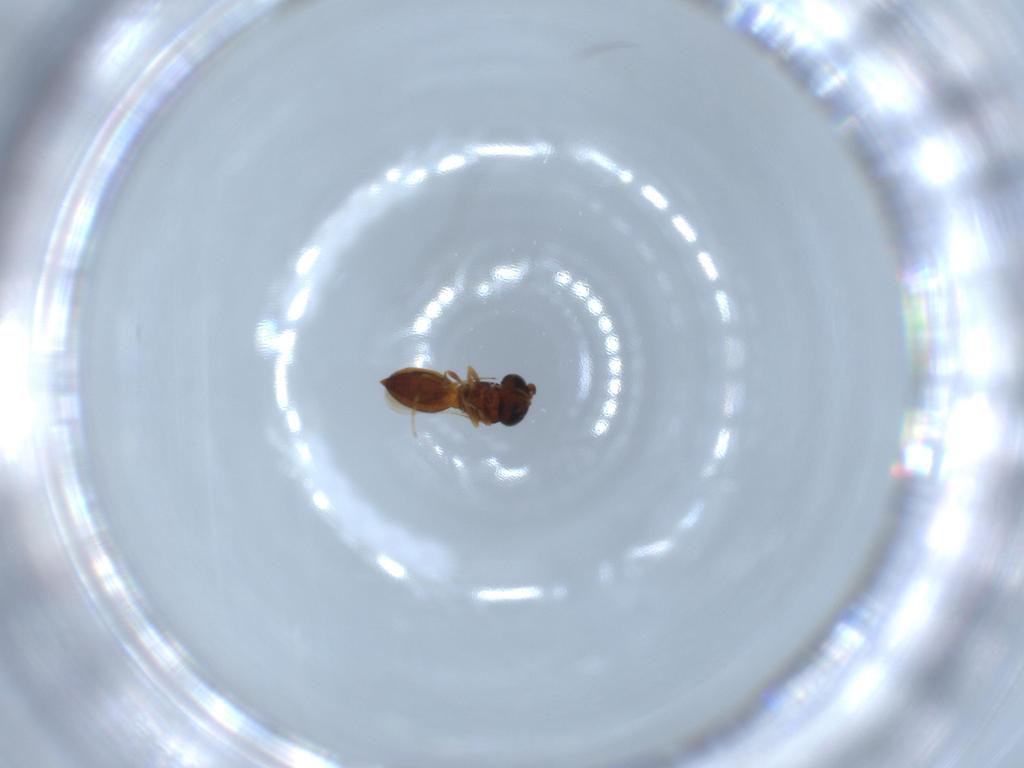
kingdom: Animalia
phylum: Arthropoda
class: Insecta
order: Hymenoptera
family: Scelionidae
